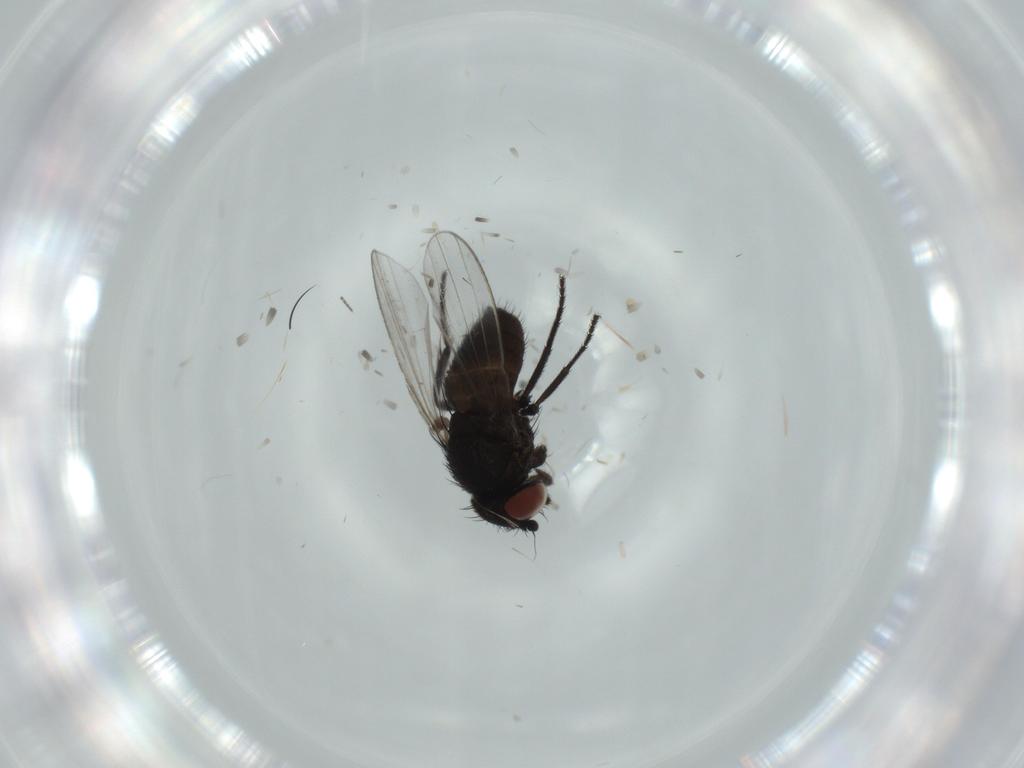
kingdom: Animalia
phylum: Arthropoda
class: Insecta
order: Diptera
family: Milichiidae
